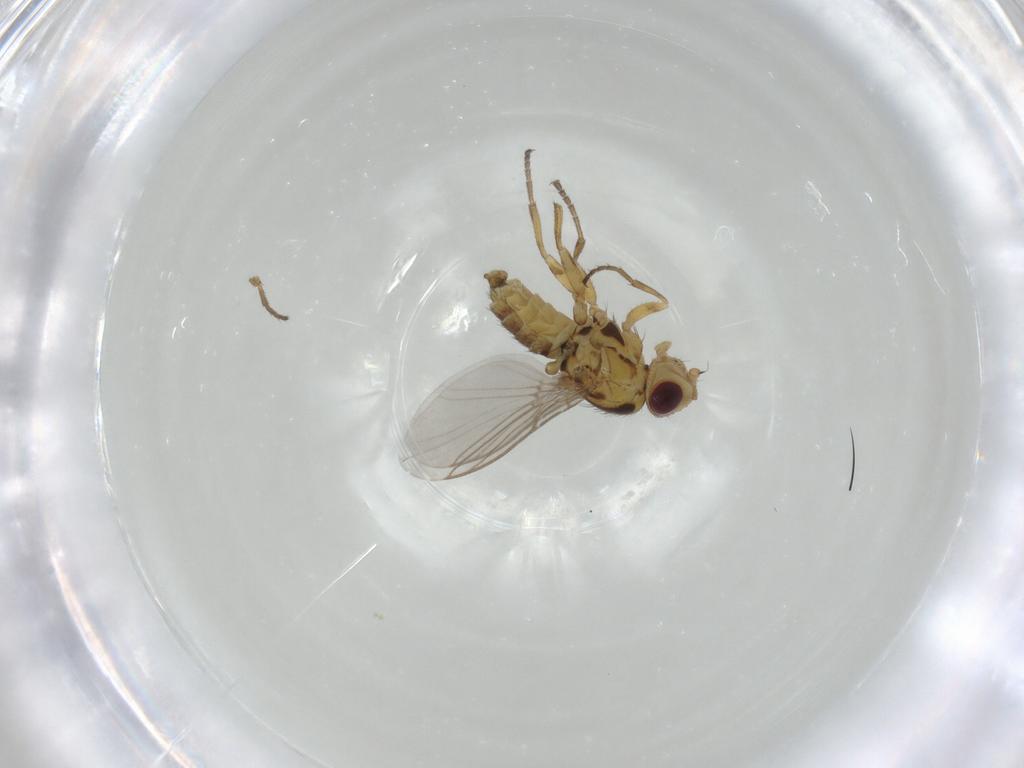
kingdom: Animalia
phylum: Arthropoda
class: Insecta
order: Diptera
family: Agromyzidae
